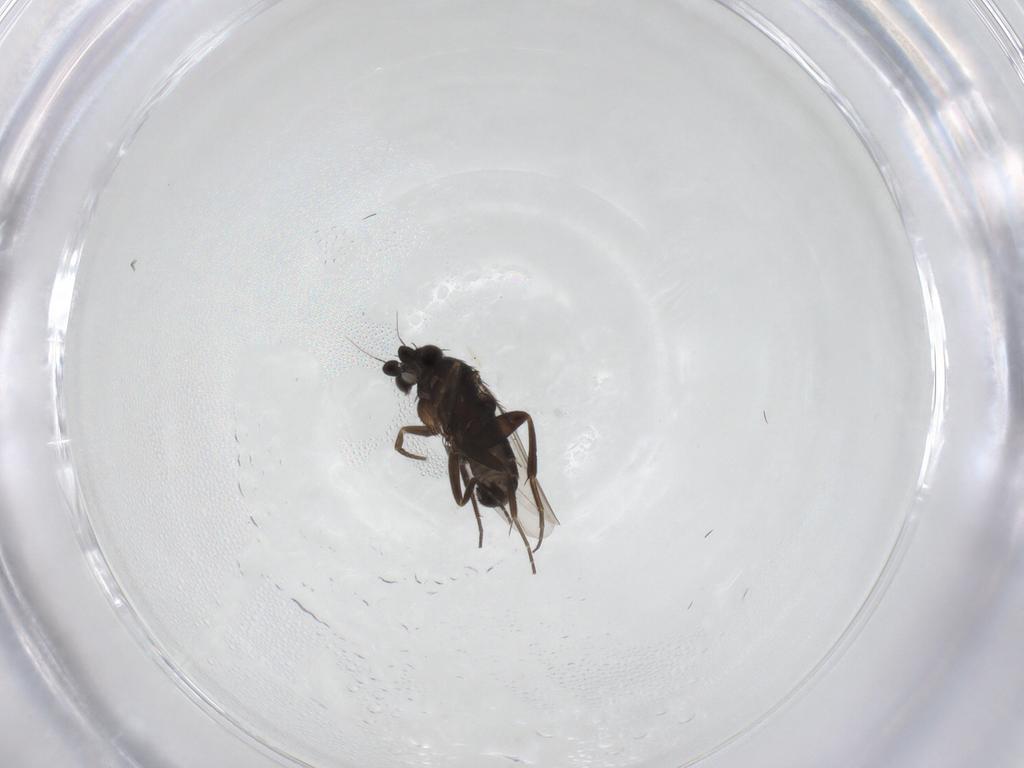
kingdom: Animalia
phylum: Arthropoda
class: Insecta
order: Diptera
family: Cecidomyiidae
